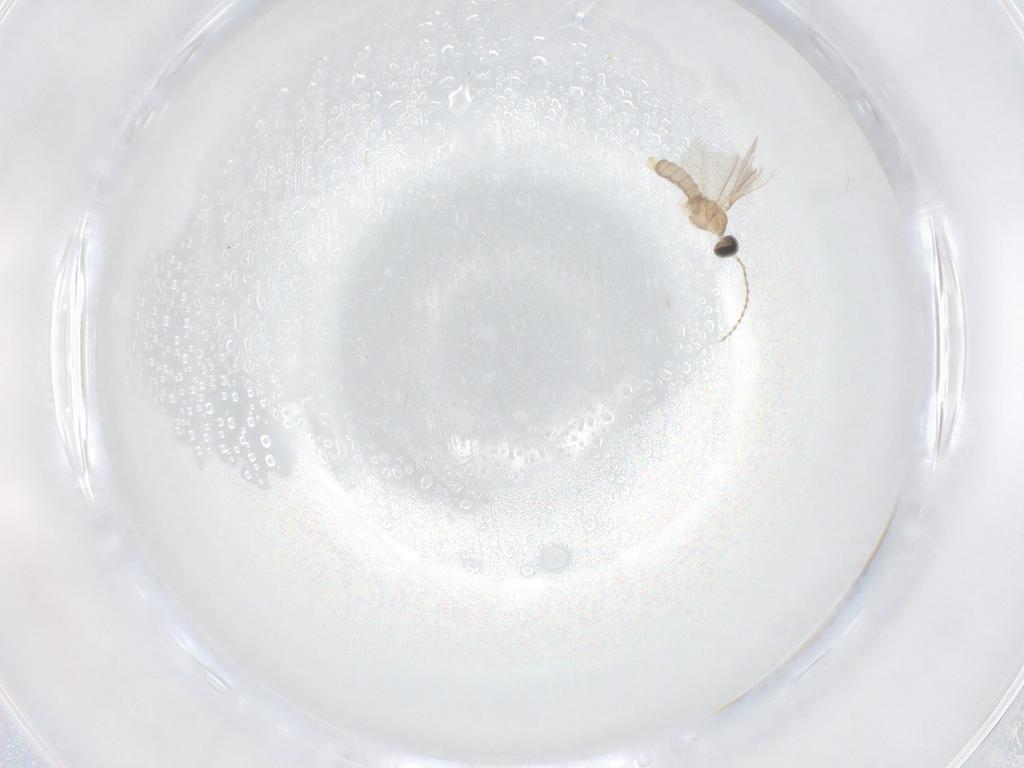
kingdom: Animalia
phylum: Arthropoda
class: Insecta
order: Diptera
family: Cecidomyiidae
